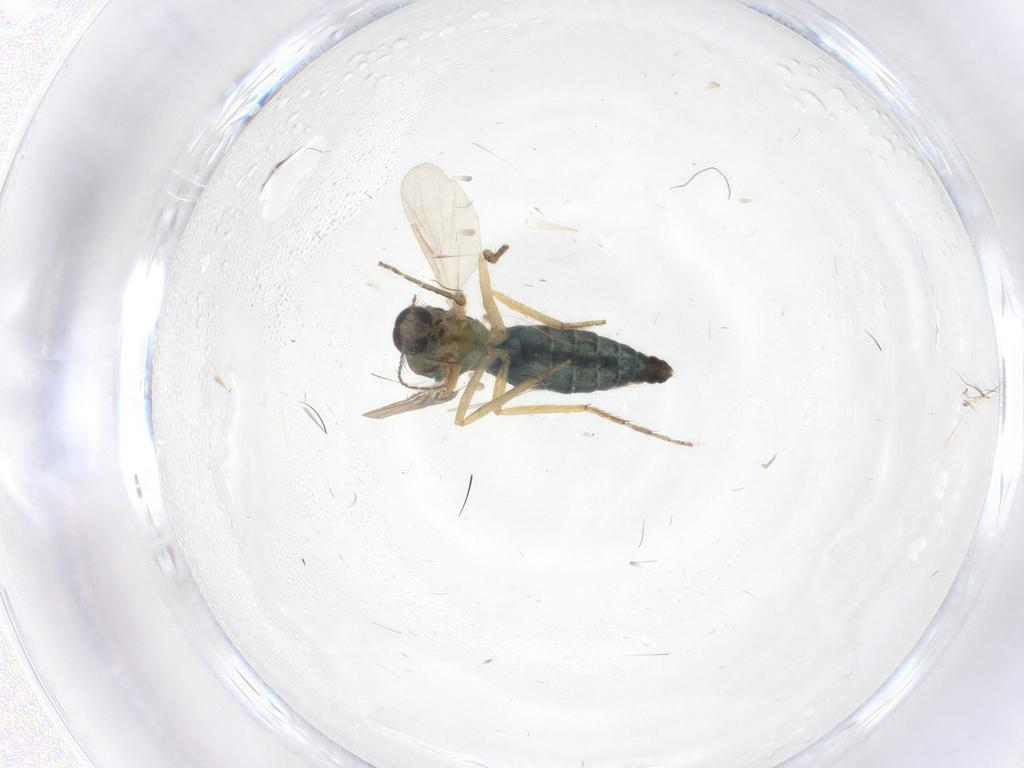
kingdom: Animalia
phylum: Arthropoda
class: Insecta
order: Diptera
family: Ceratopogonidae
